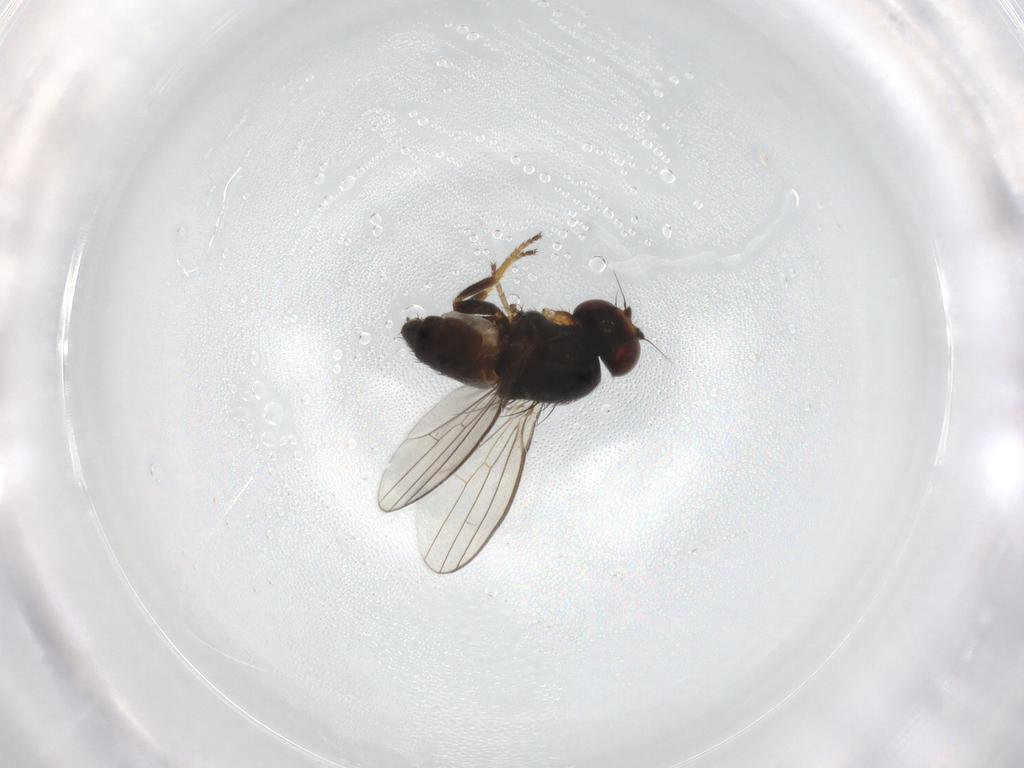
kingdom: Animalia
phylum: Arthropoda
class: Insecta
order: Diptera
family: Milichiidae
